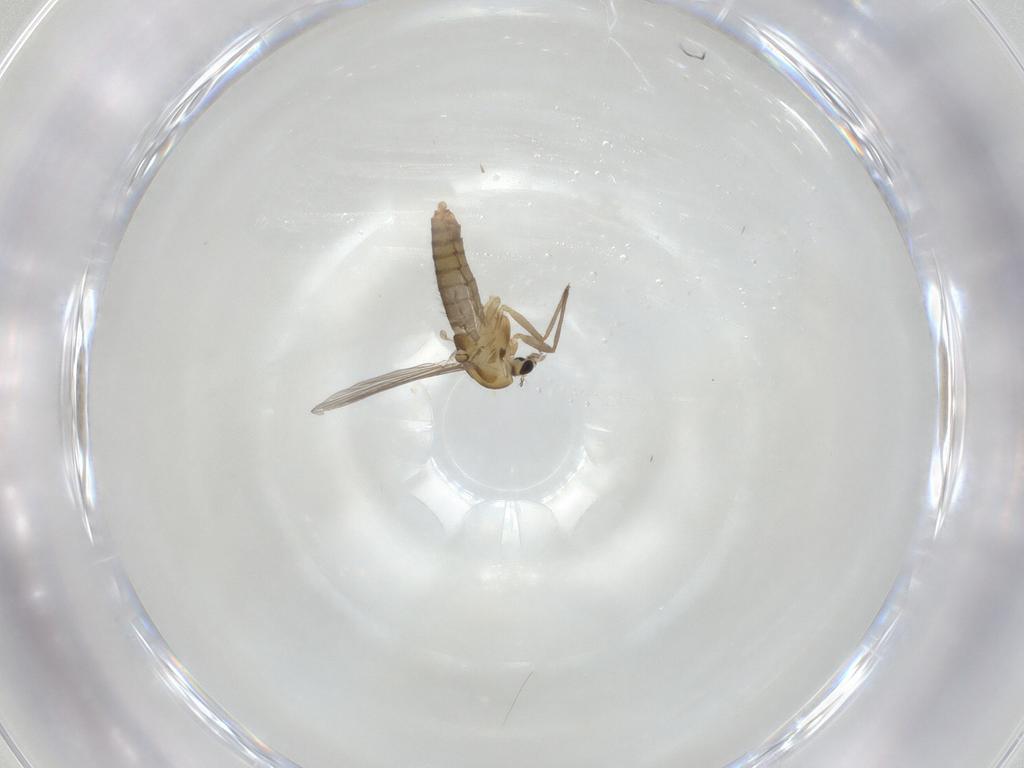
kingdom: Animalia
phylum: Arthropoda
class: Insecta
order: Diptera
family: Chironomidae
